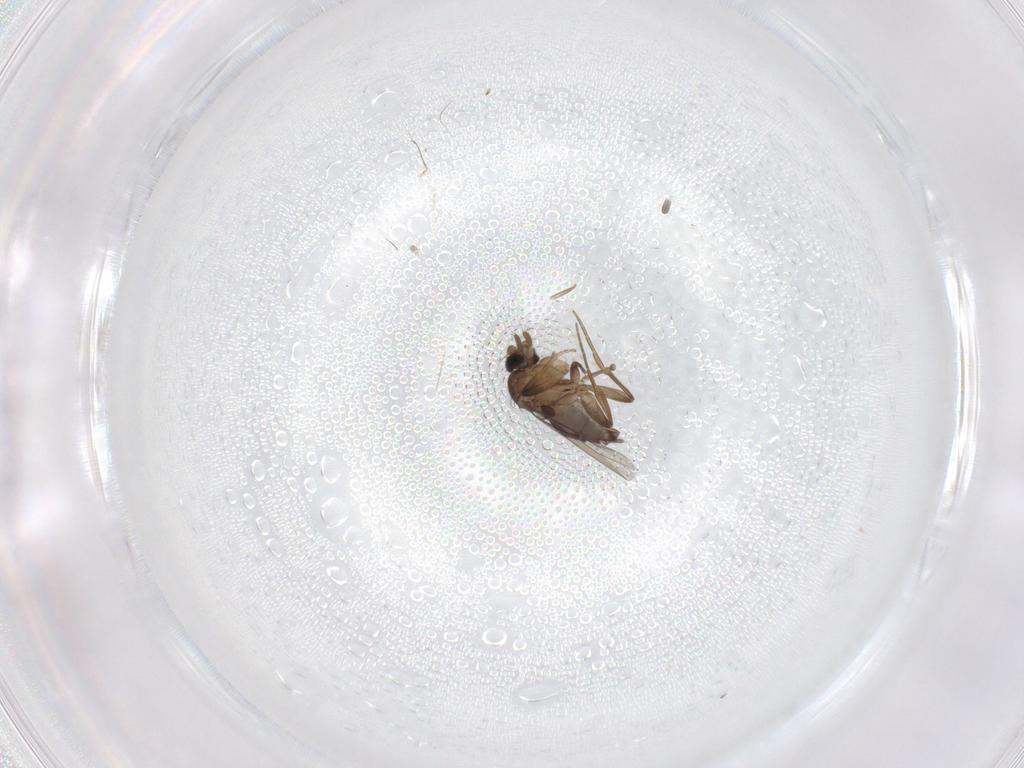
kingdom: Animalia
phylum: Arthropoda
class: Insecta
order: Diptera
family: Phoridae
